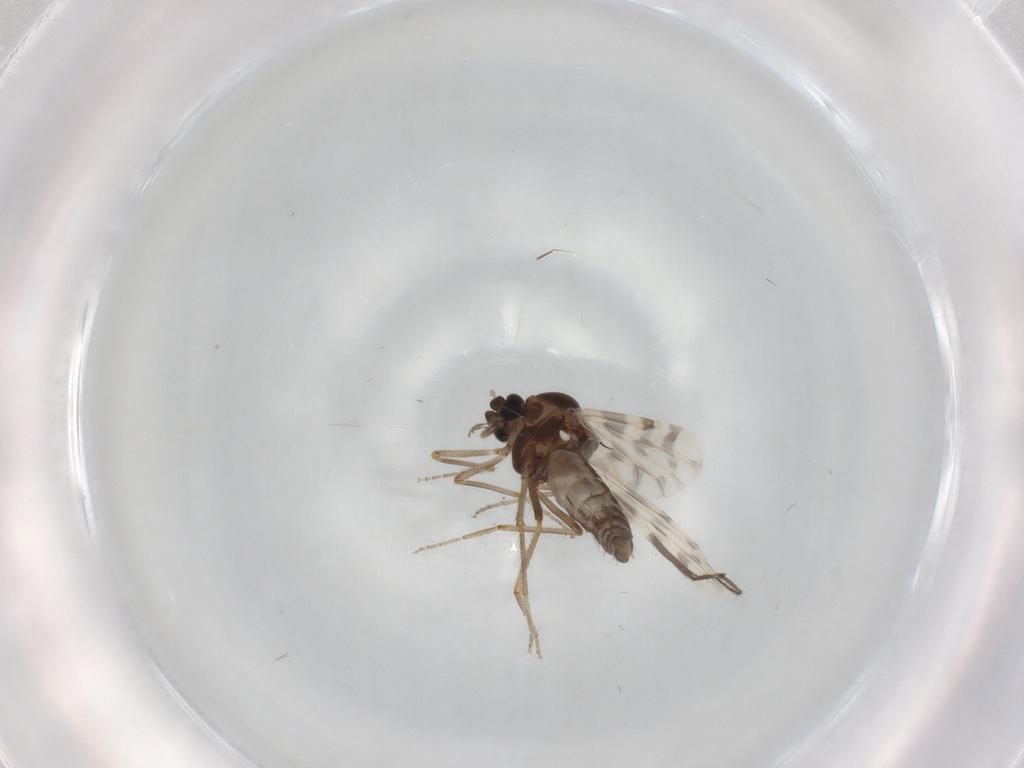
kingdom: Animalia
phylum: Arthropoda
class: Insecta
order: Diptera
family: Ceratopogonidae
